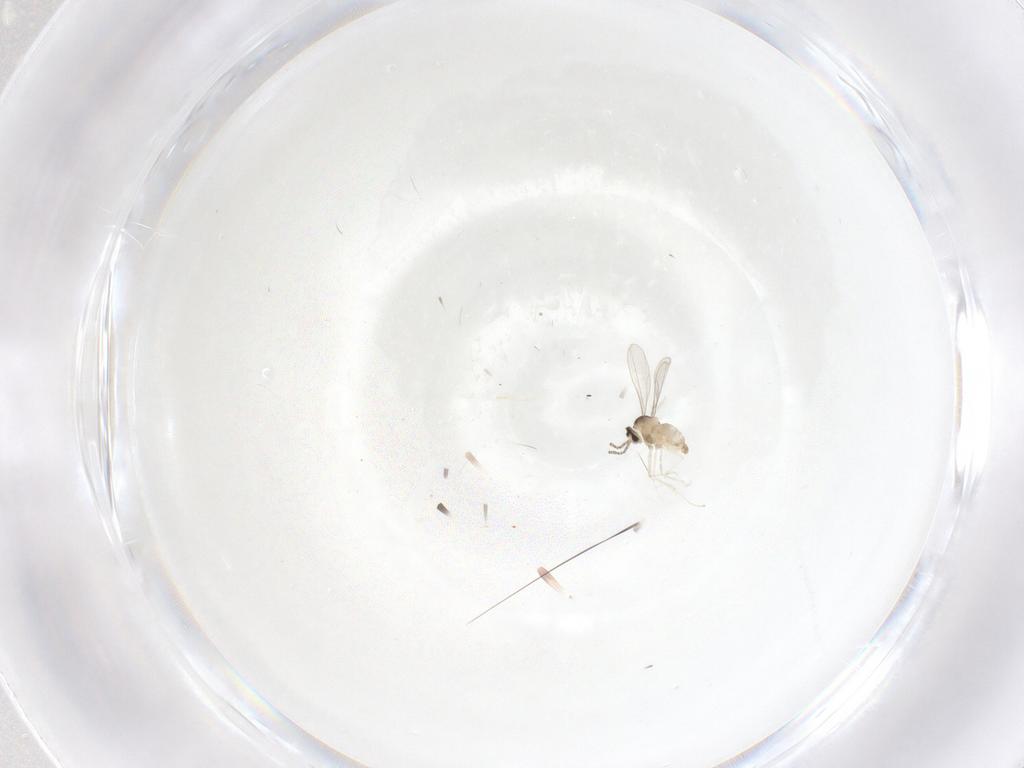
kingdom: Animalia
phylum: Arthropoda
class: Insecta
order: Diptera
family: Cecidomyiidae
